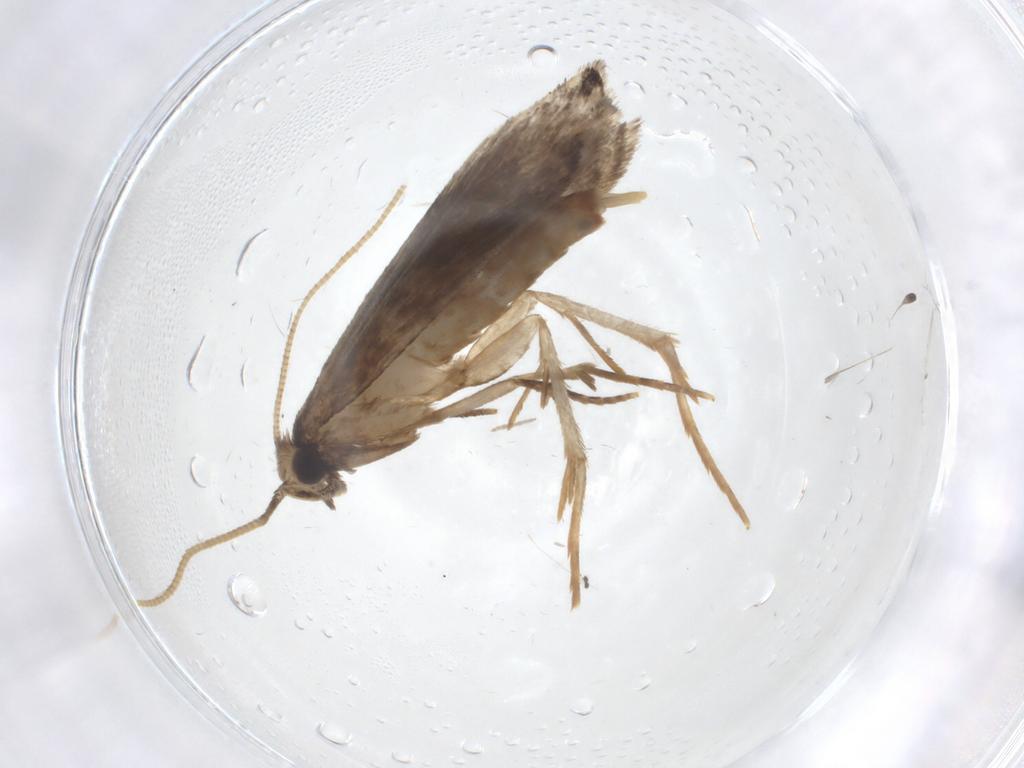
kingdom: Animalia
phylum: Arthropoda
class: Insecta
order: Lepidoptera
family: Tineidae
